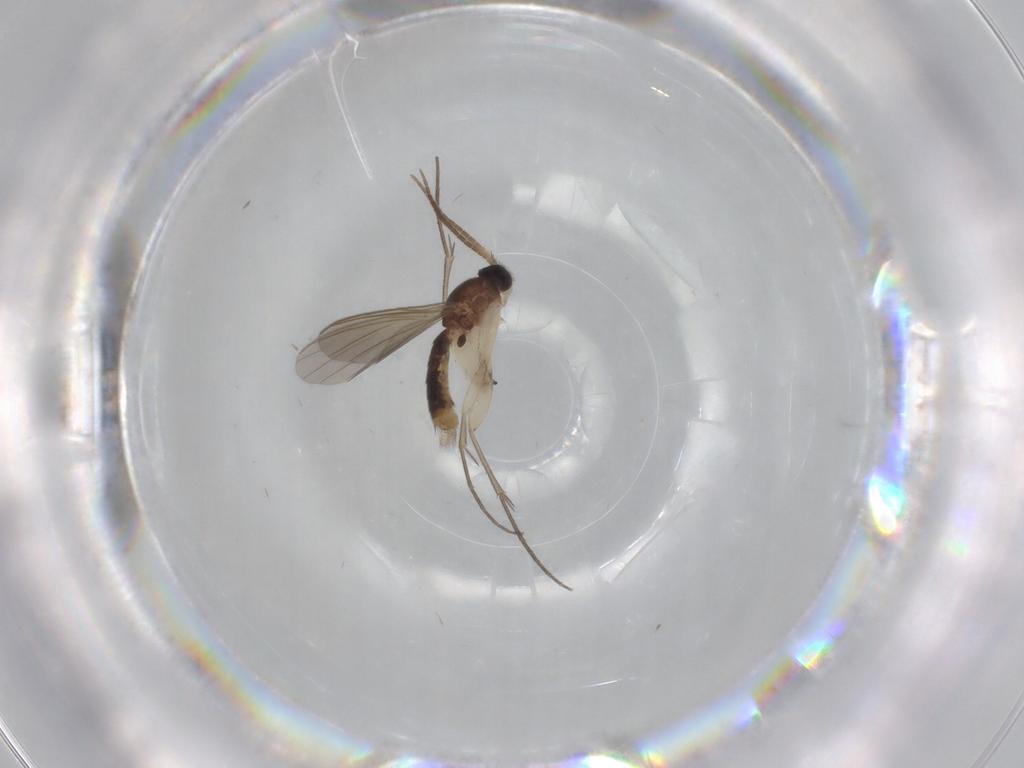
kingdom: Animalia
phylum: Arthropoda
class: Insecta
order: Diptera
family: Mycetophilidae
